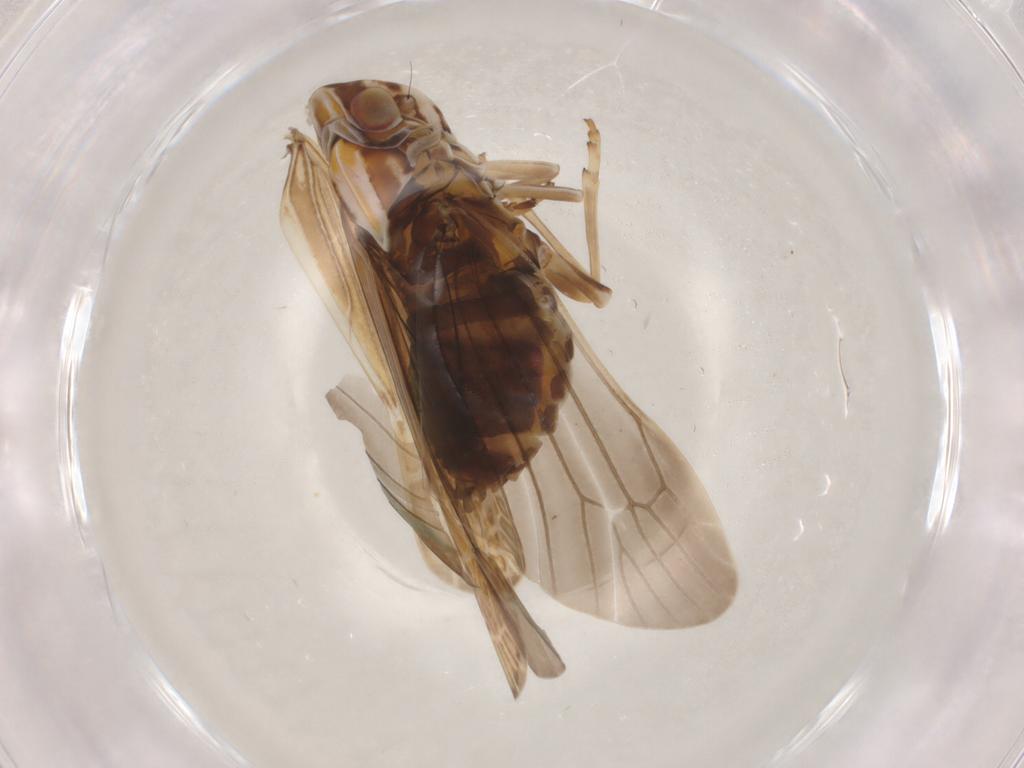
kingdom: Animalia
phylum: Arthropoda
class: Insecta
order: Hemiptera
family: Achilidae
